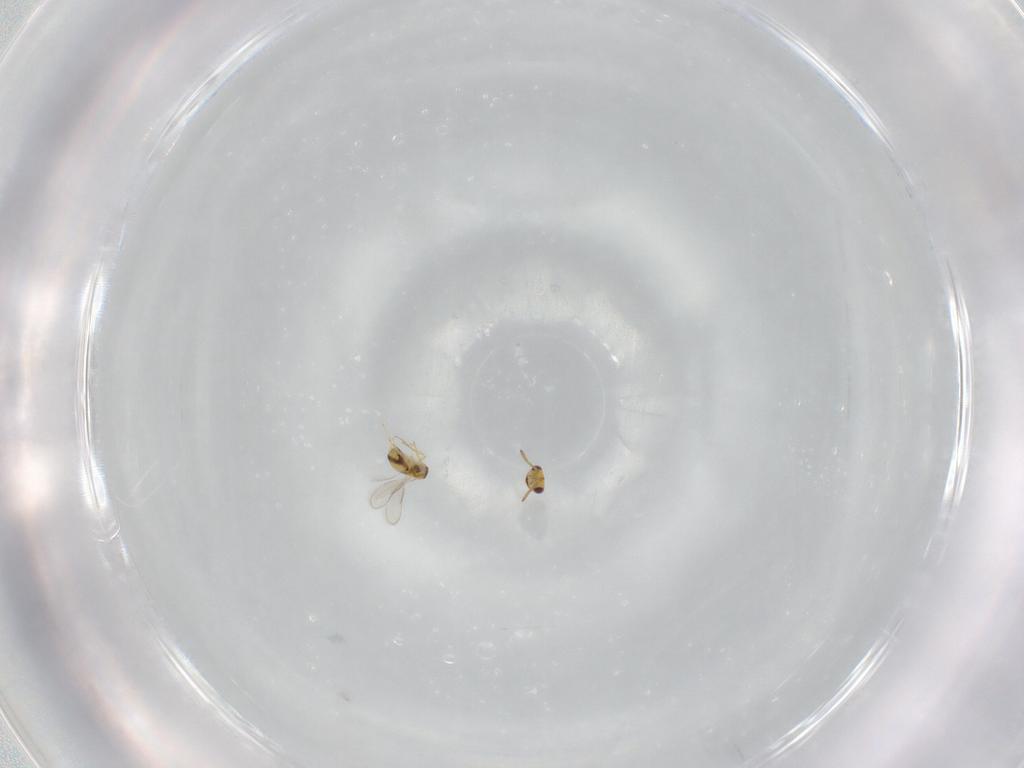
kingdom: Animalia
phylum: Arthropoda
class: Insecta
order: Hymenoptera
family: Aphelinidae
